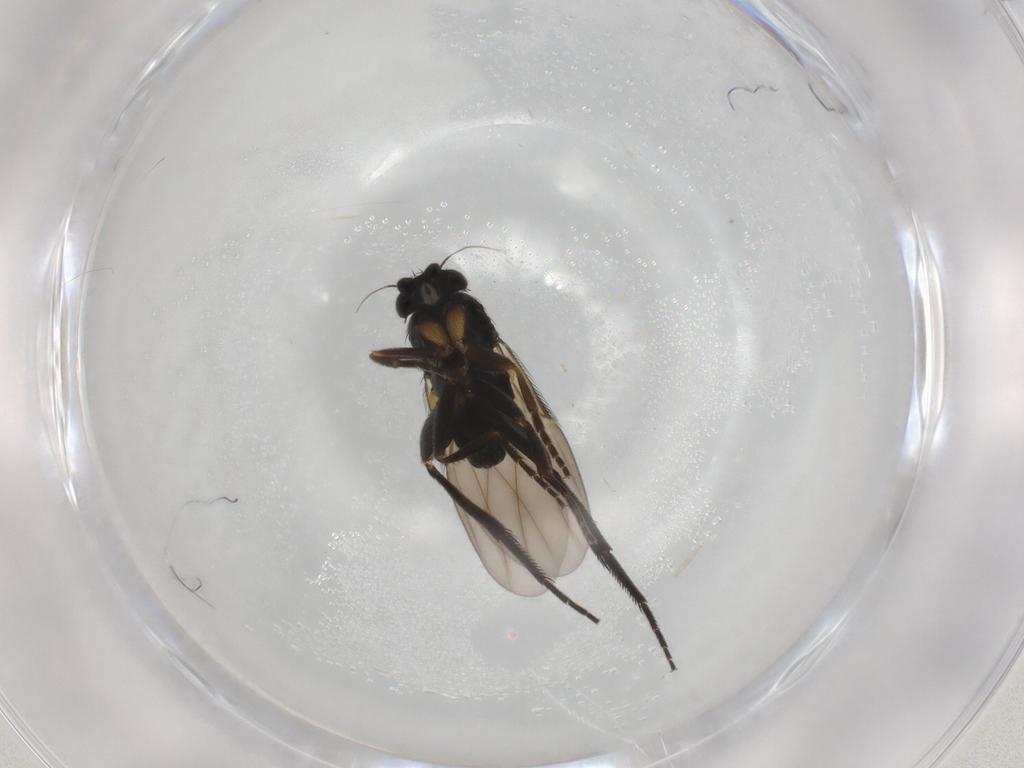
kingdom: Animalia
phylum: Arthropoda
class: Insecta
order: Diptera
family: Phoridae
